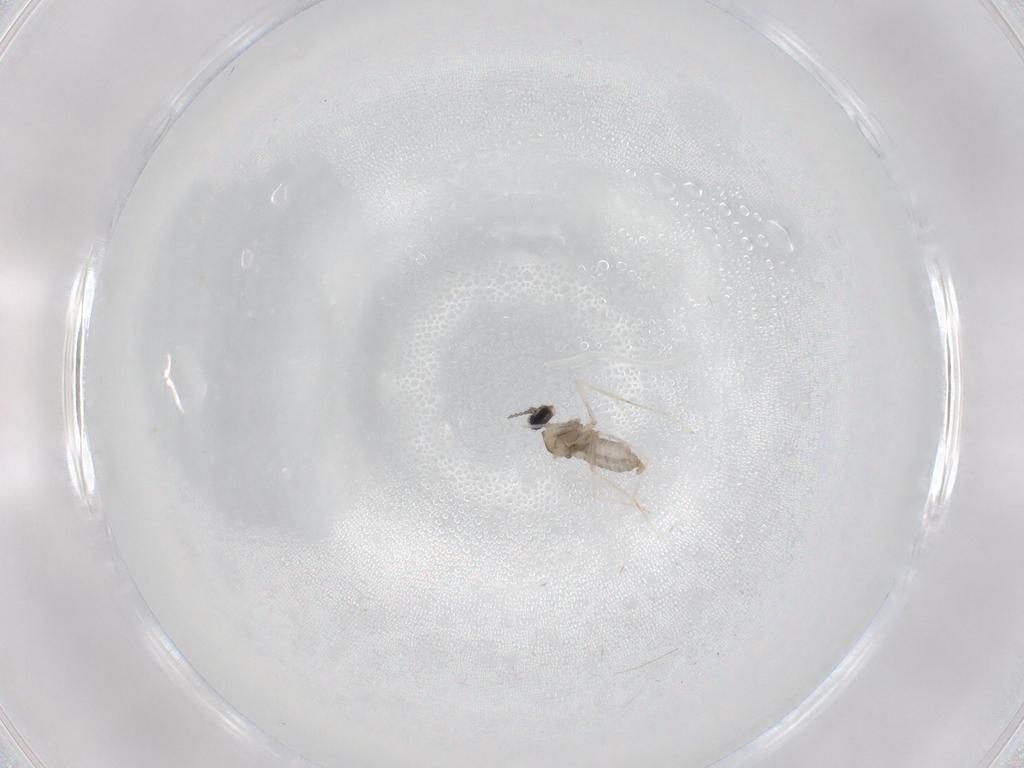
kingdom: Animalia
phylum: Arthropoda
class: Insecta
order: Diptera
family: Cecidomyiidae
